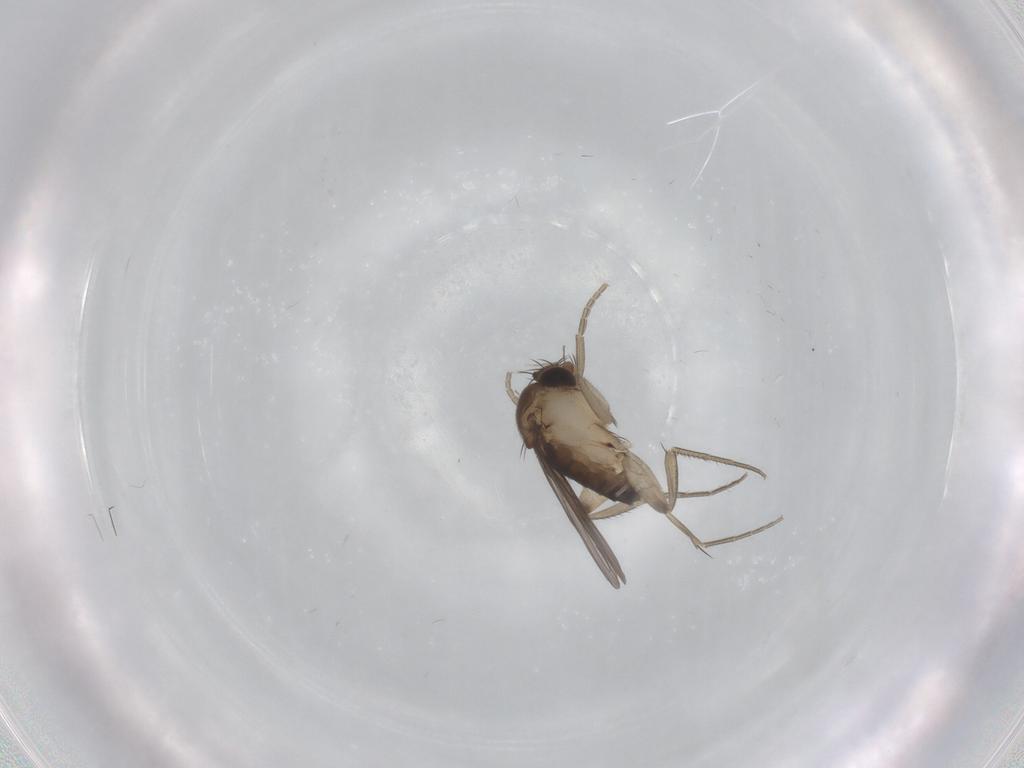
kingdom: Animalia
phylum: Arthropoda
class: Insecta
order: Diptera
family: Phoridae
